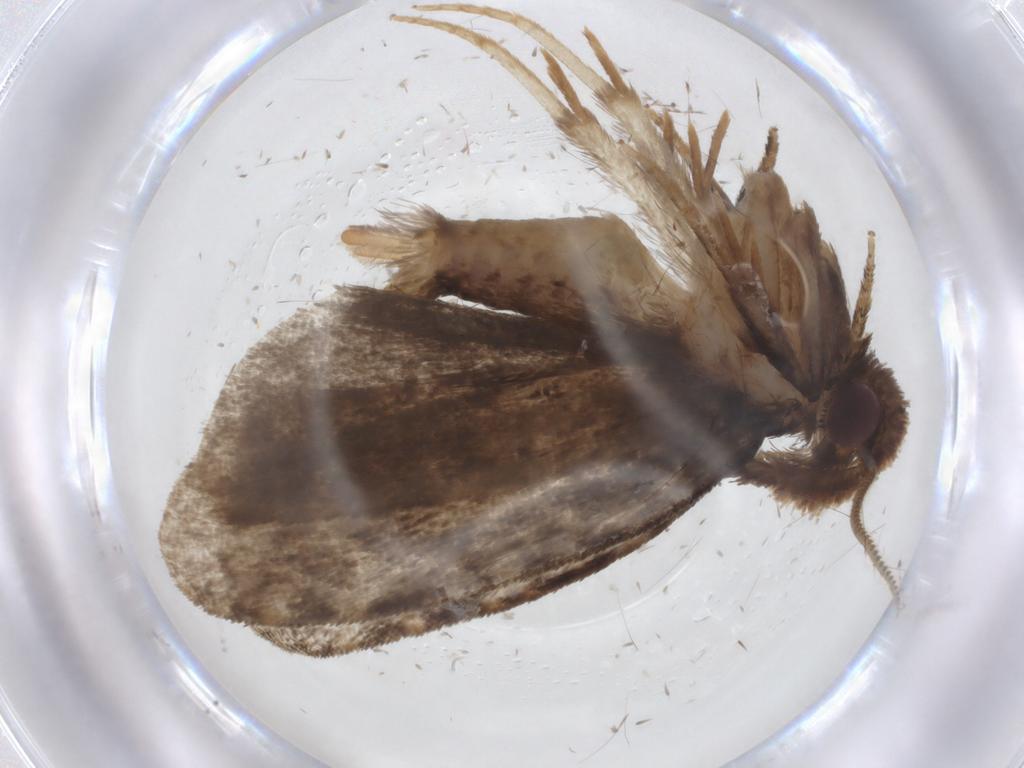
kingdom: Animalia
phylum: Arthropoda
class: Insecta
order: Lepidoptera
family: Tineidae
